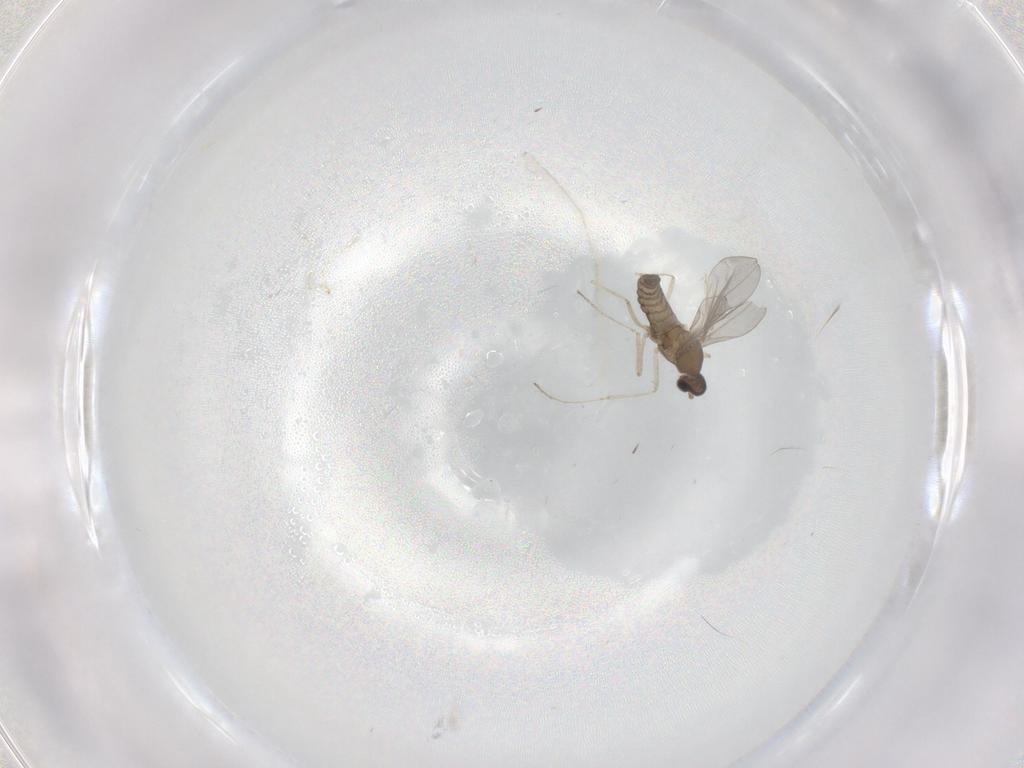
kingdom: Animalia
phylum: Arthropoda
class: Insecta
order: Diptera
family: Cecidomyiidae
